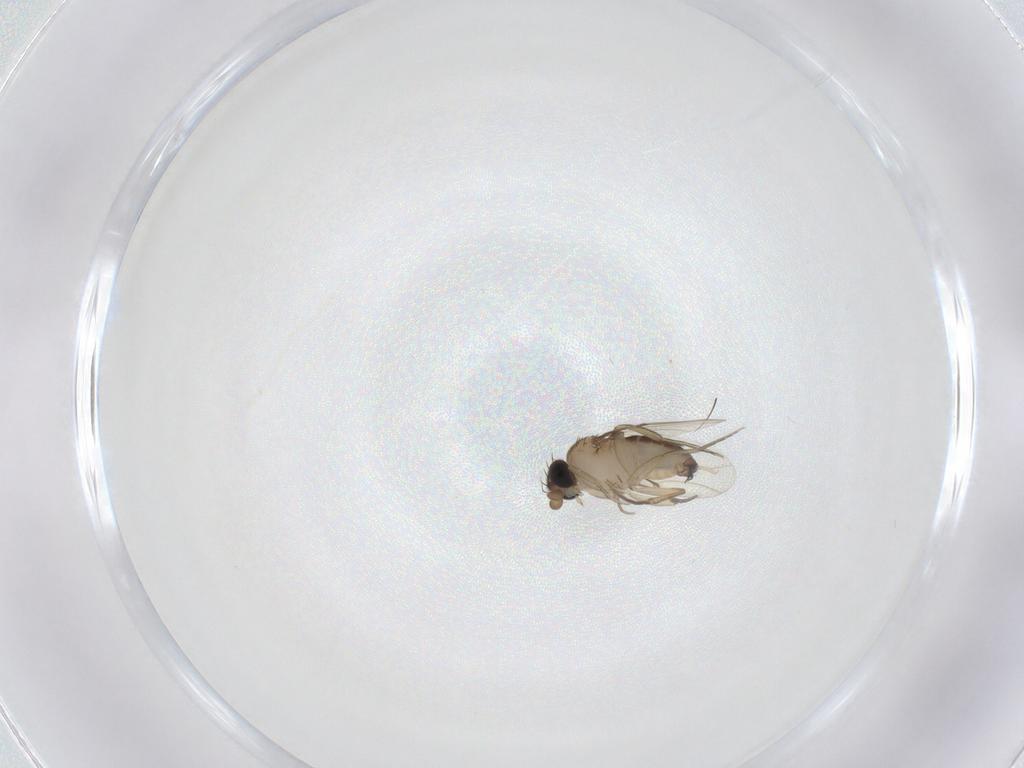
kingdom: Animalia
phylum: Arthropoda
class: Insecta
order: Diptera
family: Phoridae
